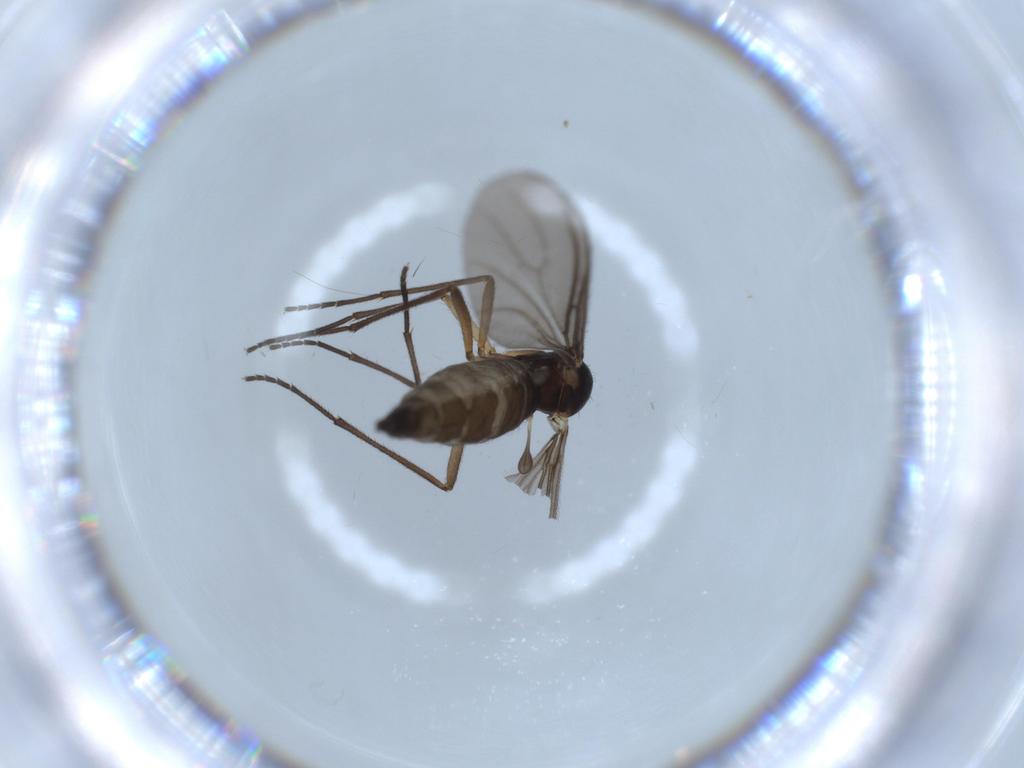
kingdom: Animalia
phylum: Arthropoda
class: Insecta
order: Diptera
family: Sciaridae
